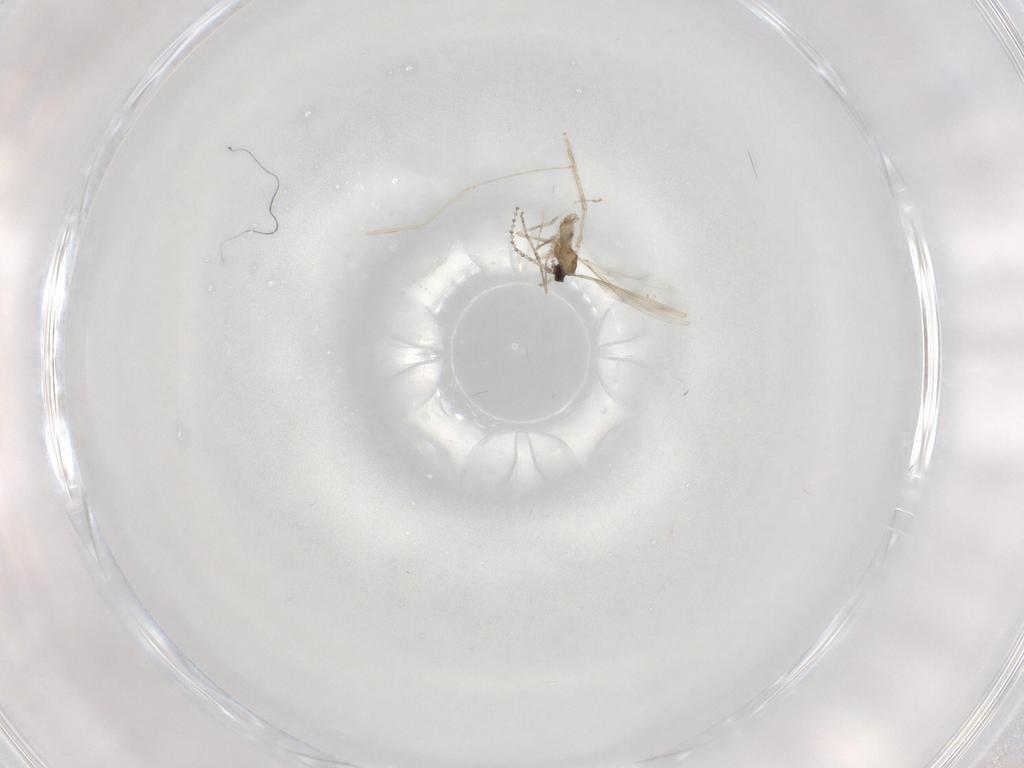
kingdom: Animalia
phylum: Arthropoda
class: Insecta
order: Diptera
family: Cecidomyiidae
